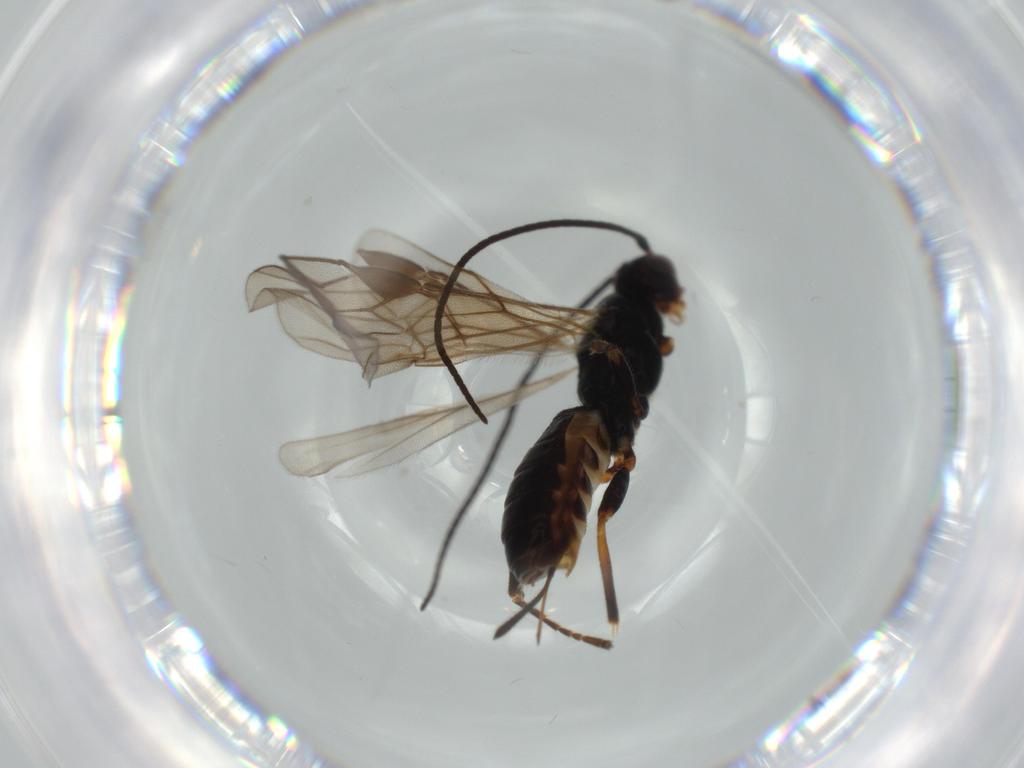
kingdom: Animalia
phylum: Arthropoda
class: Insecta
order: Hymenoptera
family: Braconidae
